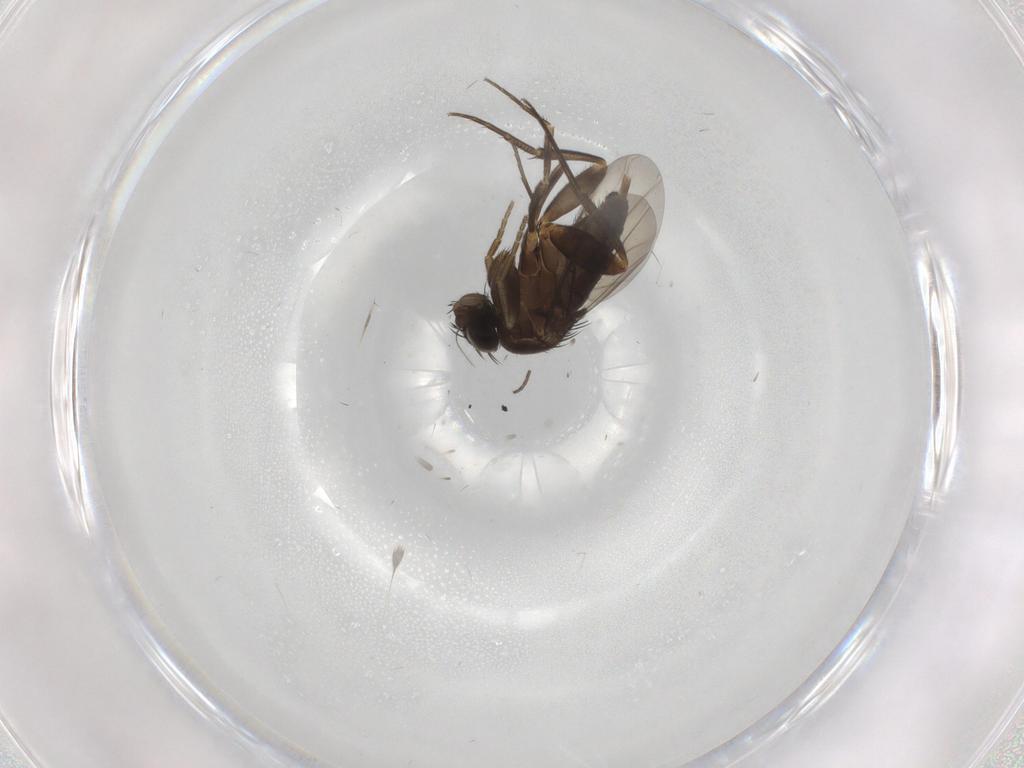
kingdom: Animalia
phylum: Arthropoda
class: Insecta
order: Diptera
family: Phoridae
